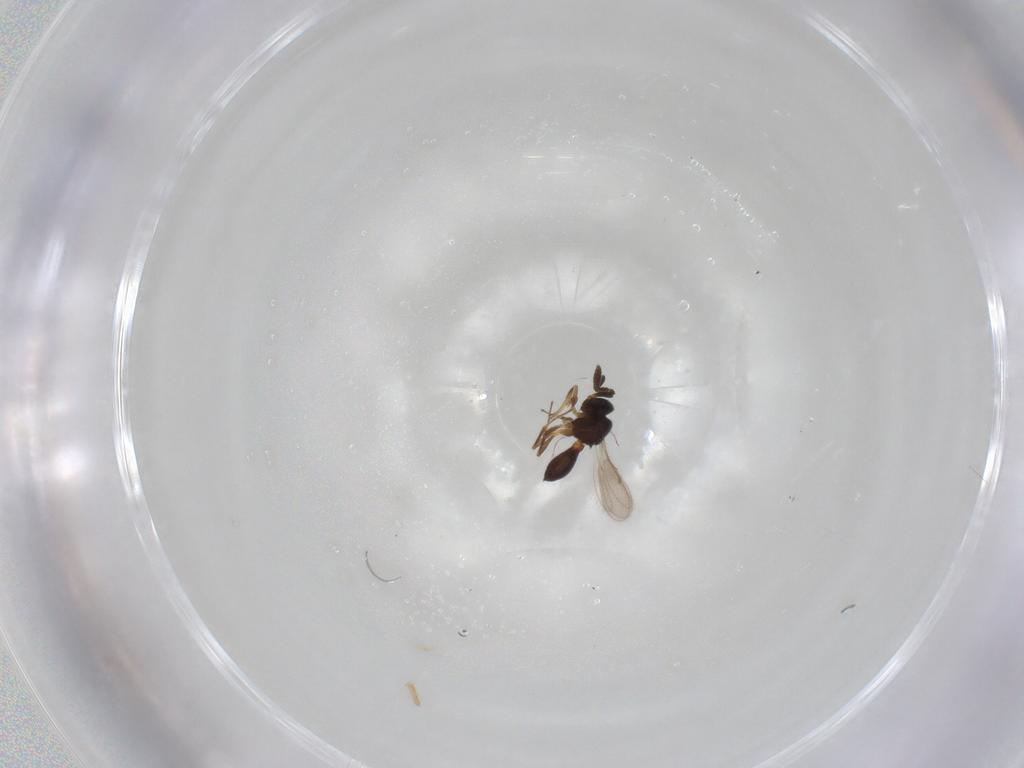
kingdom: Animalia
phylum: Arthropoda
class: Insecta
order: Hymenoptera
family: Scelionidae
